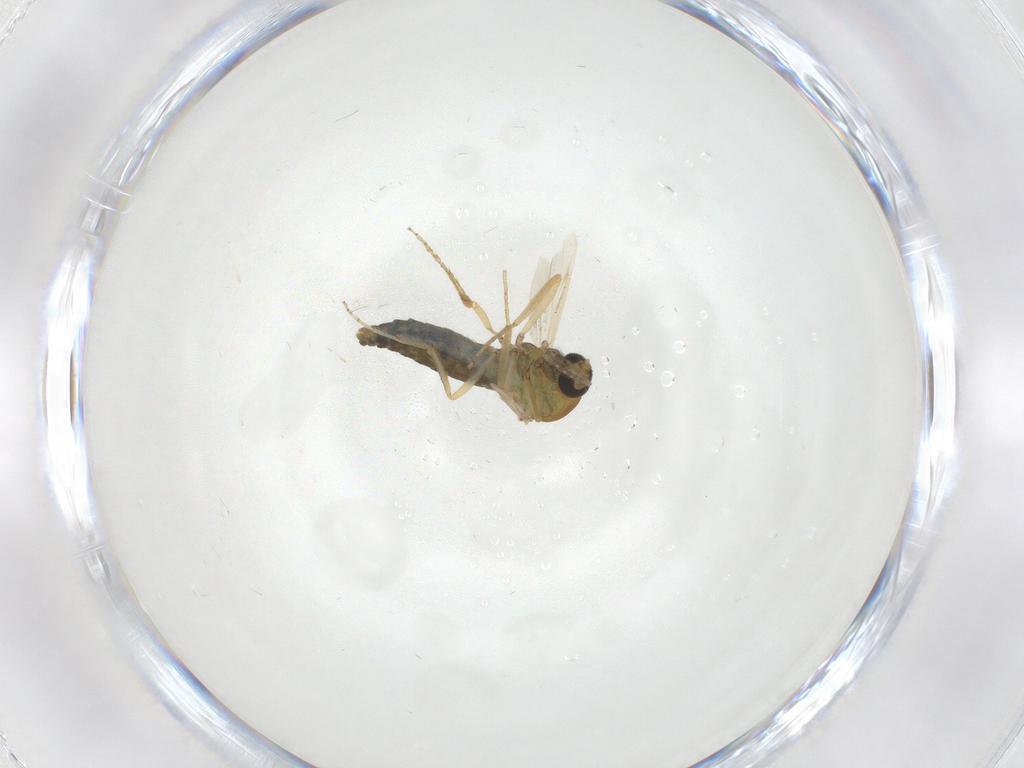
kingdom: Animalia
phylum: Arthropoda
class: Insecta
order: Diptera
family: Ceratopogonidae
